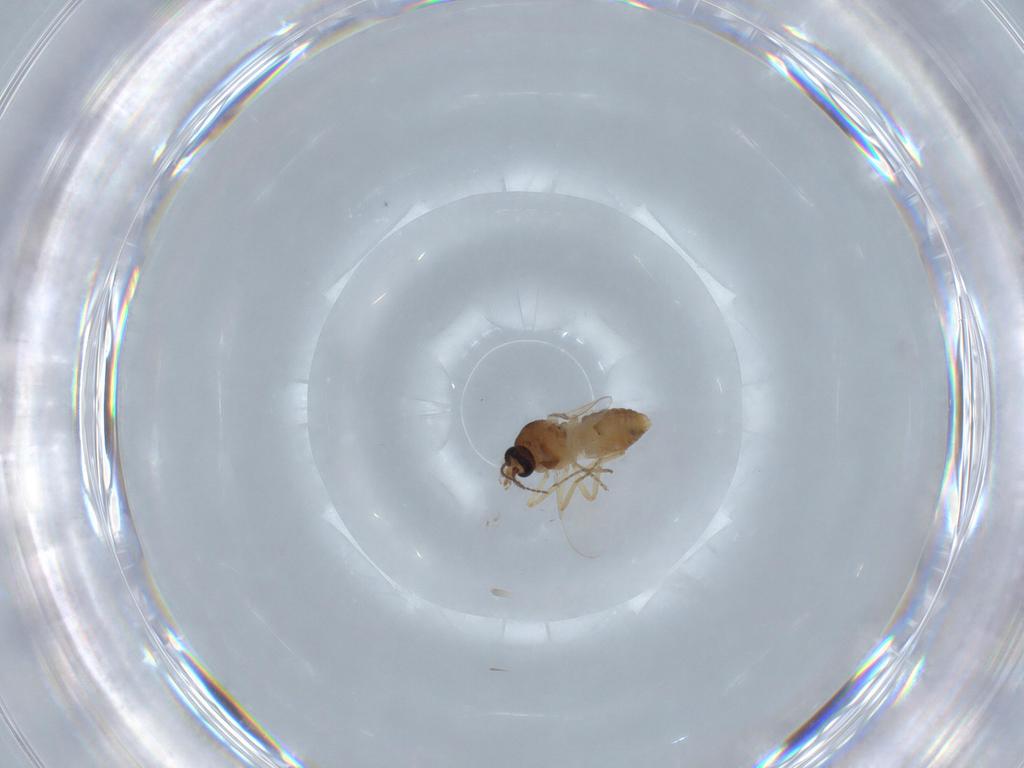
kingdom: Animalia
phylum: Arthropoda
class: Insecta
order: Diptera
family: Ceratopogonidae
